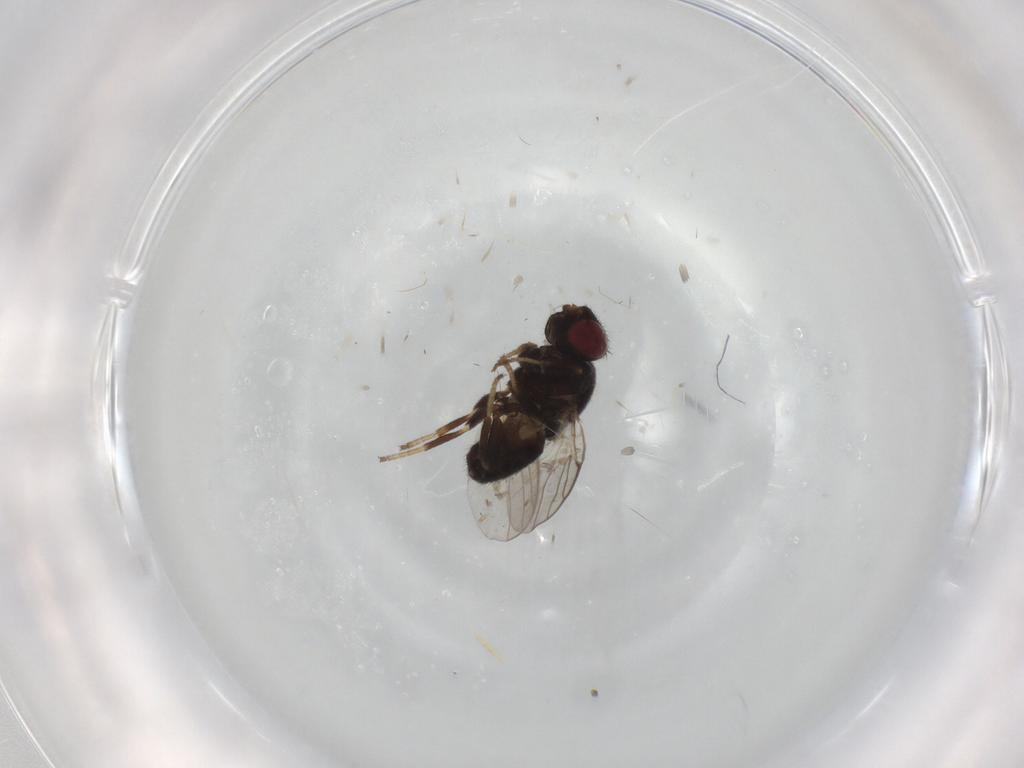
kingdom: Animalia
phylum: Arthropoda
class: Insecta
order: Diptera
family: Chloropidae
